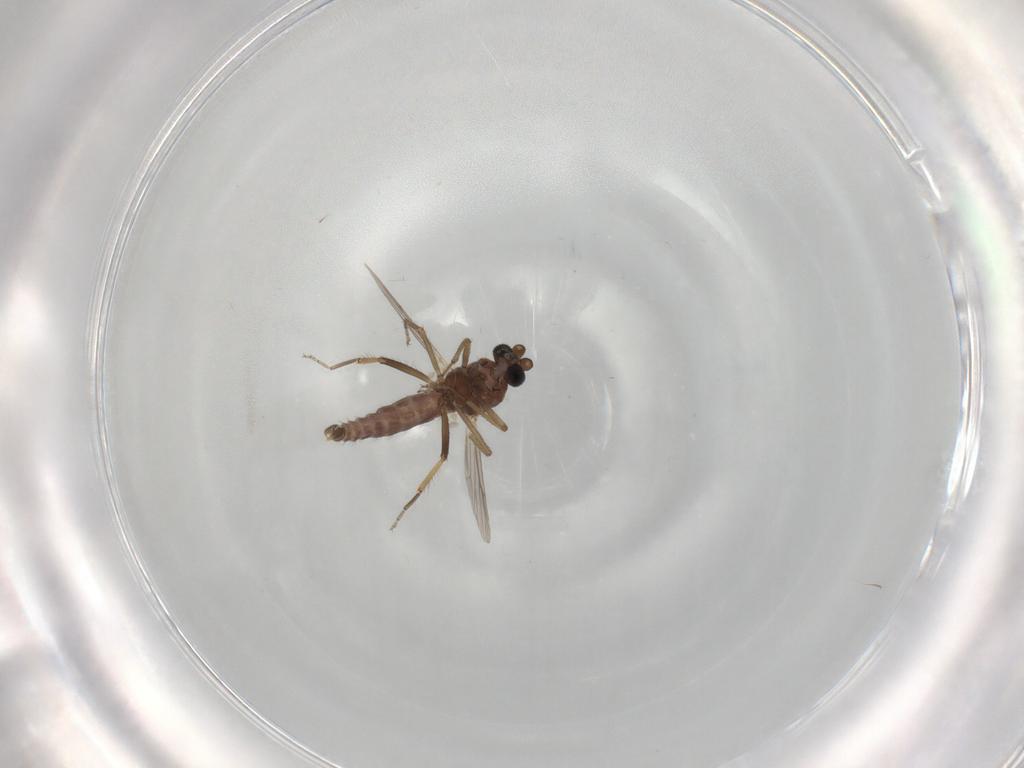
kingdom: Animalia
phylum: Arthropoda
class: Insecta
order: Diptera
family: Ceratopogonidae
